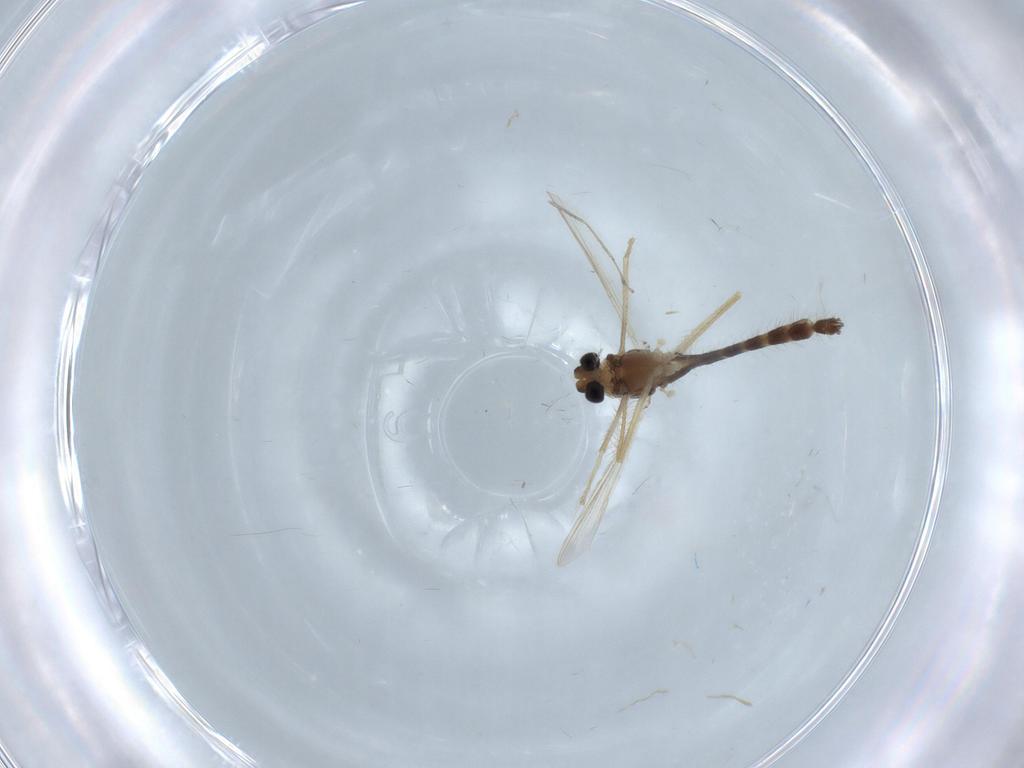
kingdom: Animalia
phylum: Arthropoda
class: Insecta
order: Diptera
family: Chironomidae
